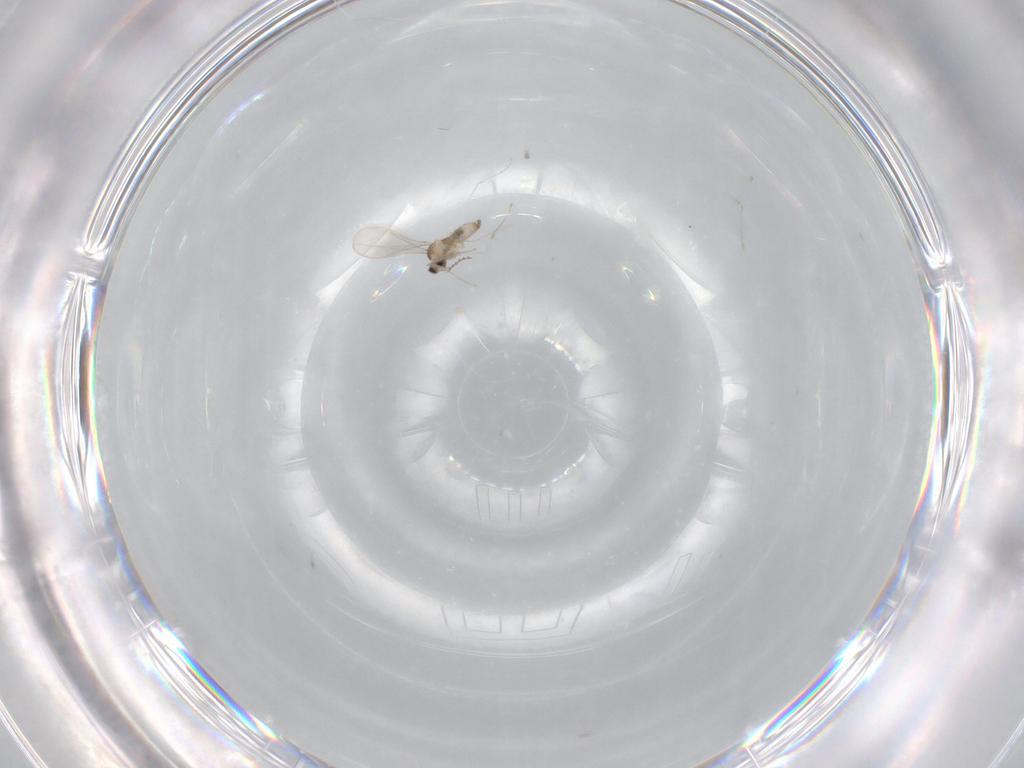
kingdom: Animalia
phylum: Arthropoda
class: Insecta
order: Diptera
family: Cecidomyiidae
